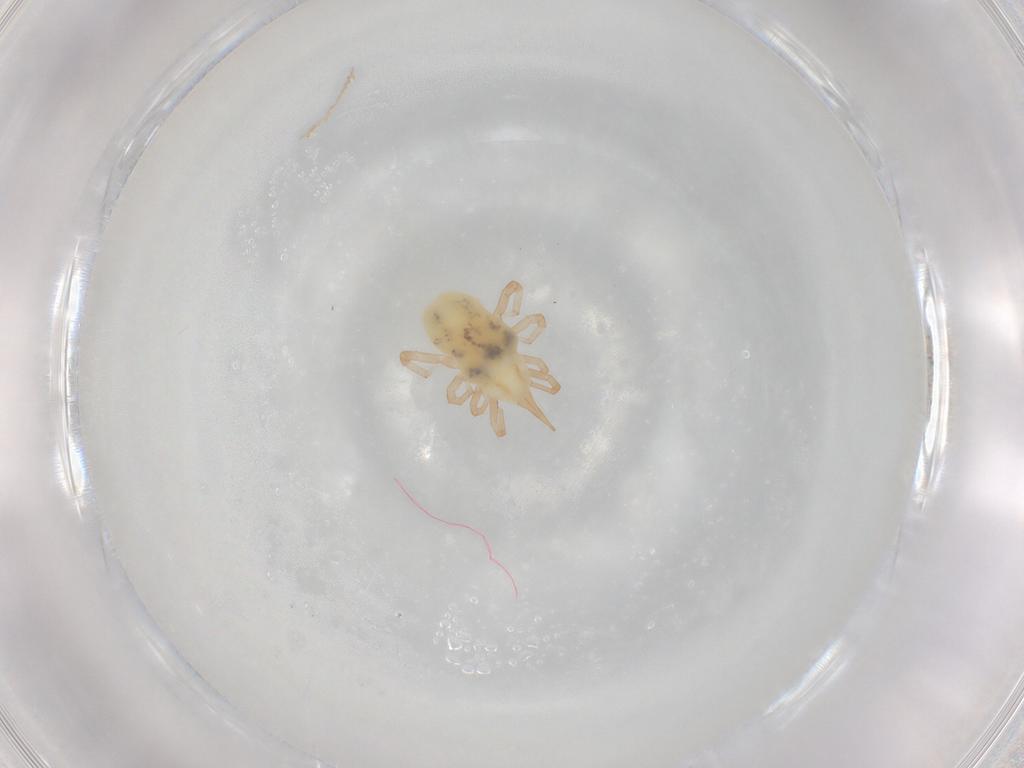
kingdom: Animalia
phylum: Arthropoda
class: Arachnida
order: Trombidiformes
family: Bdellidae
